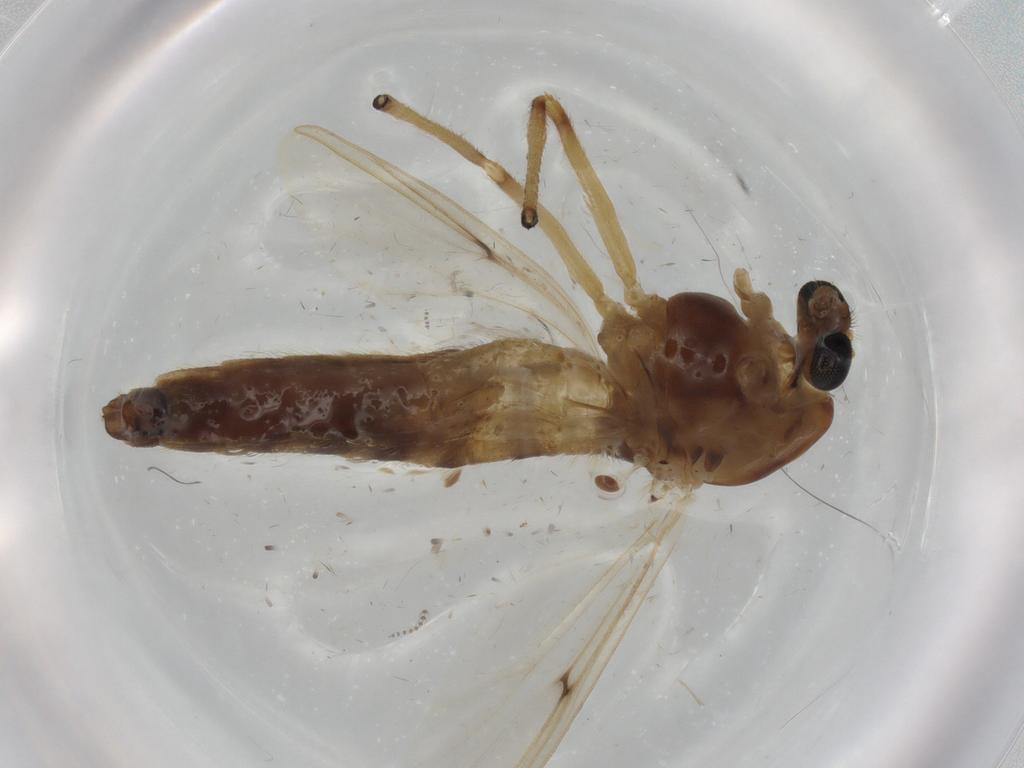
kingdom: Animalia
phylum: Arthropoda
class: Insecta
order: Diptera
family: Chironomidae
